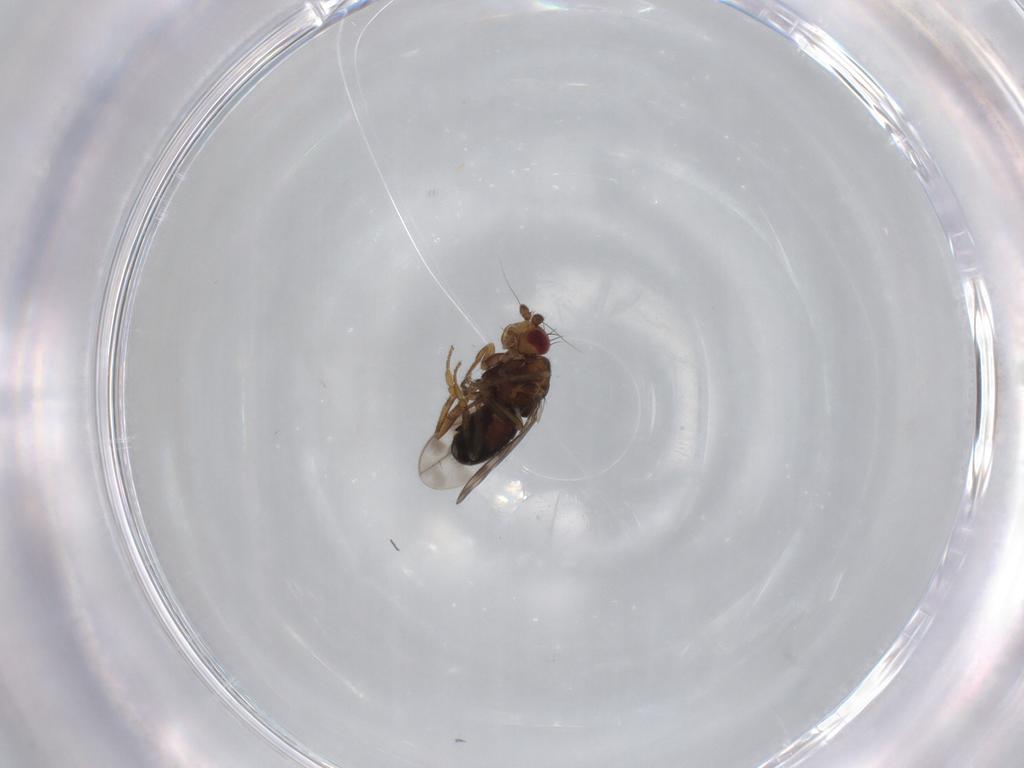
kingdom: Animalia
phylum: Arthropoda
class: Insecta
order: Diptera
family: Sphaeroceridae
